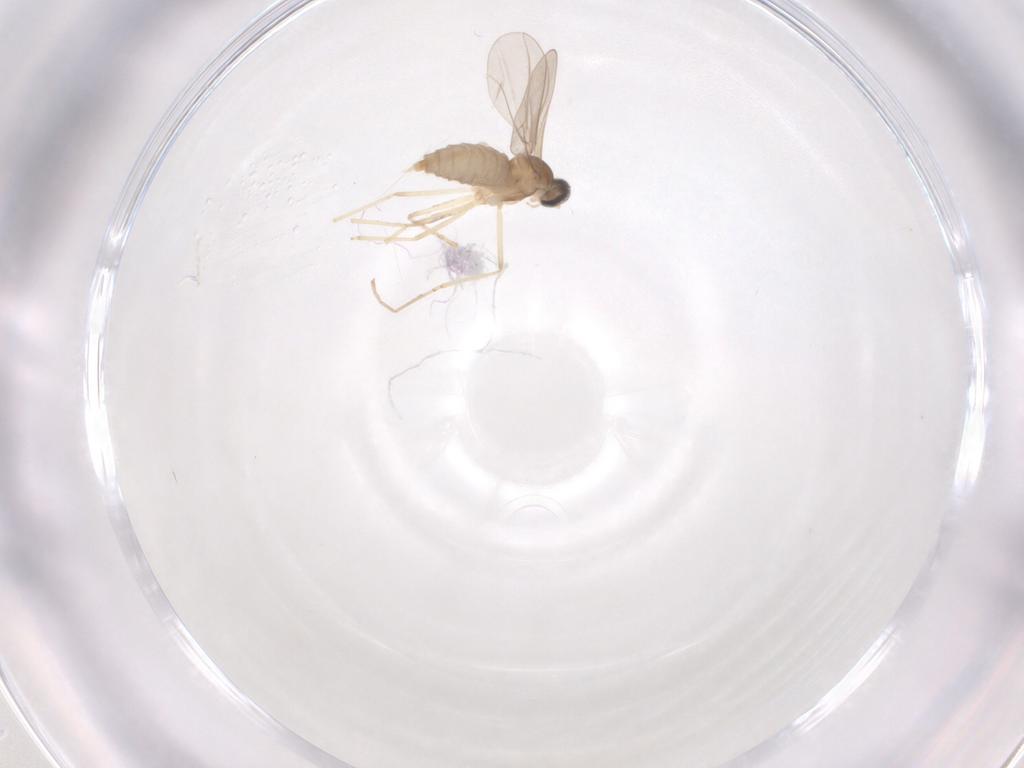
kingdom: Animalia
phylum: Arthropoda
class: Insecta
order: Diptera
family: Cecidomyiidae
